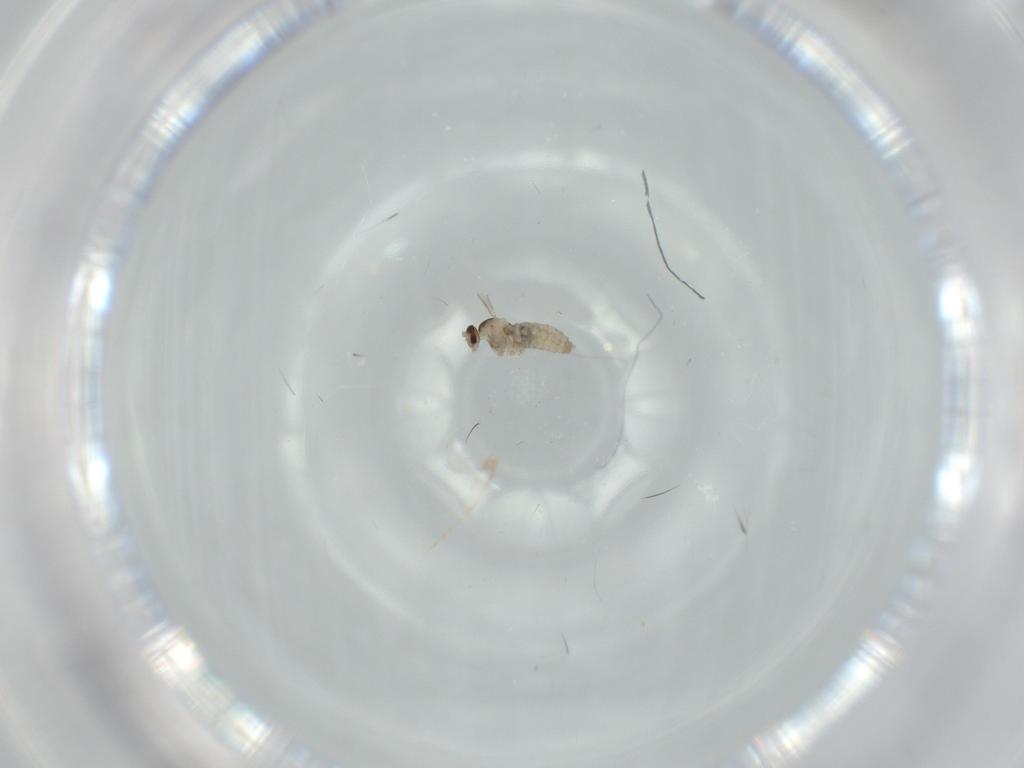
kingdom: Animalia
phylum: Arthropoda
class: Insecta
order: Diptera
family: Cecidomyiidae
